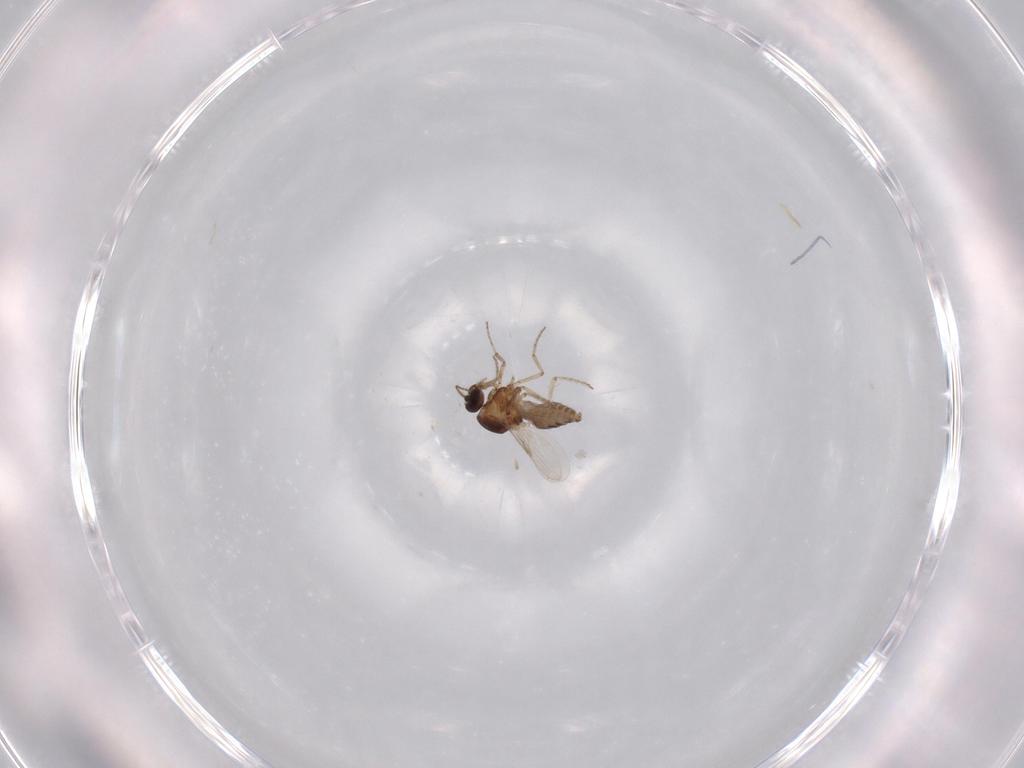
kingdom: Animalia
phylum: Arthropoda
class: Insecta
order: Diptera
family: Ceratopogonidae
